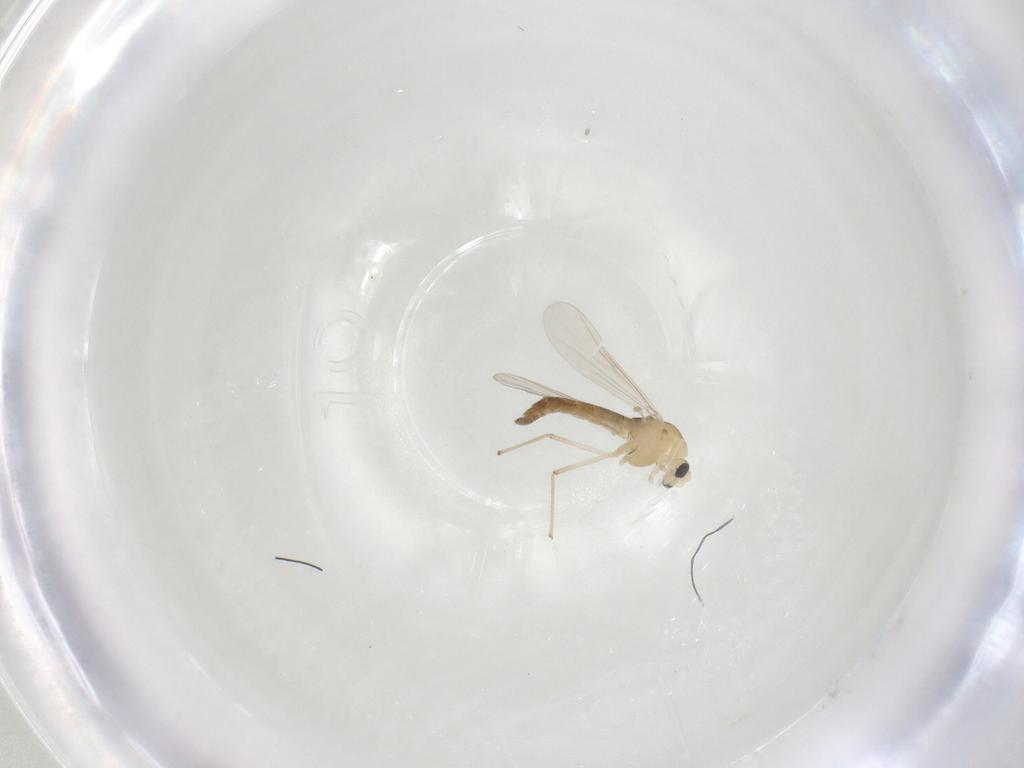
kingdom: Animalia
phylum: Arthropoda
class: Insecta
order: Diptera
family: Chironomidae
